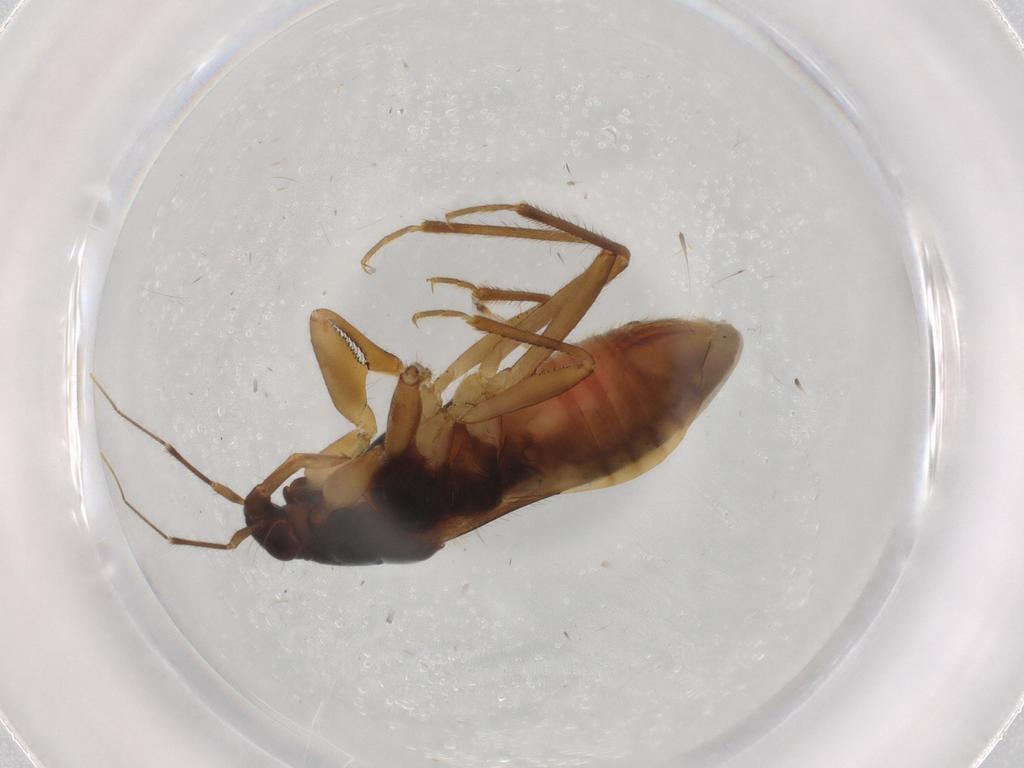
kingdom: Animalia
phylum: Arthropoda
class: Insecta
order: Hemiptera
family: Nabidae
